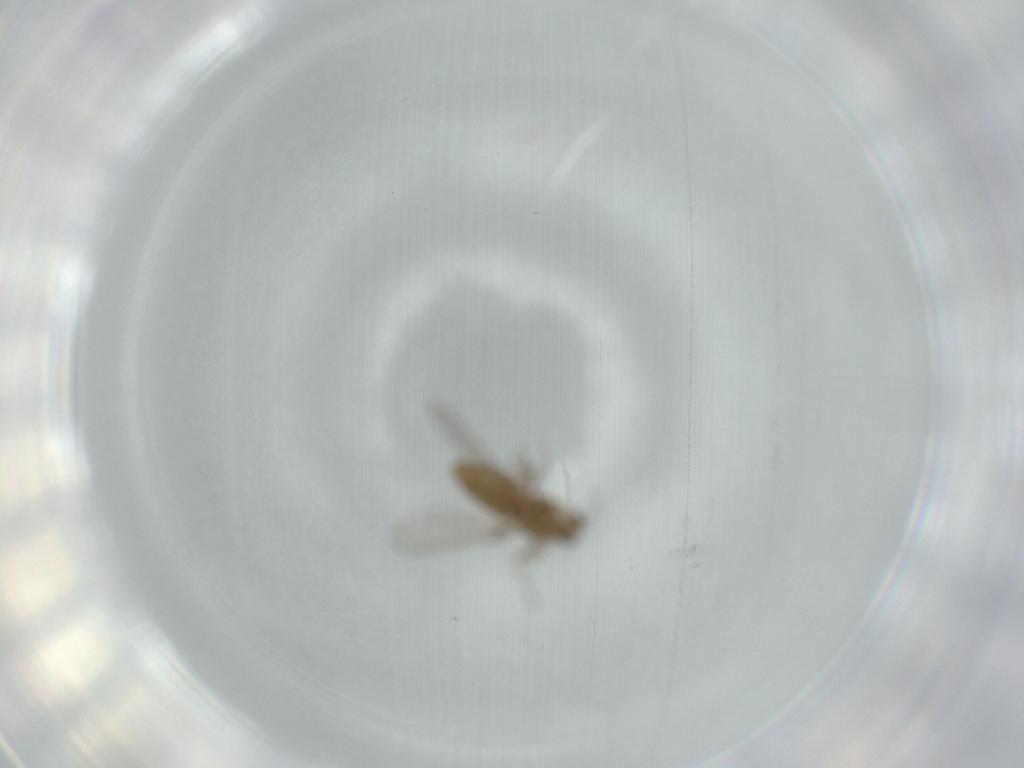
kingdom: Animalia
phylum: Arthropoda
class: Insecta
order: Diptera
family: Chironomidae
